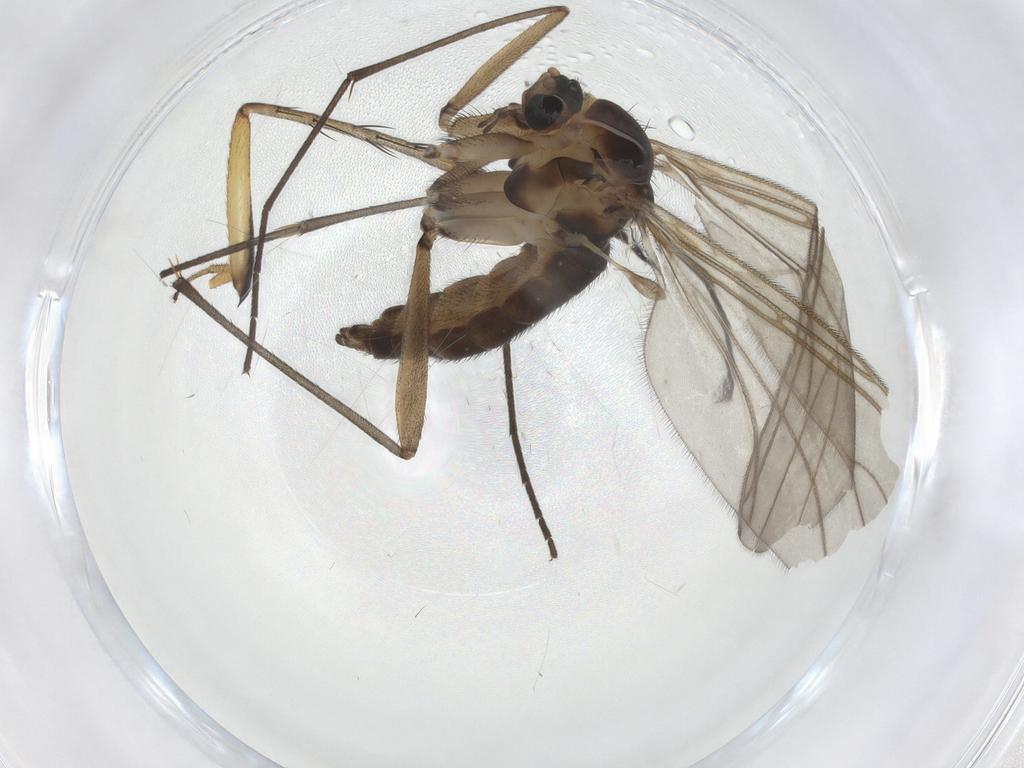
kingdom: Animalia
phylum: Arthropoda
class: Insecta
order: Diptera
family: Sciaridae
